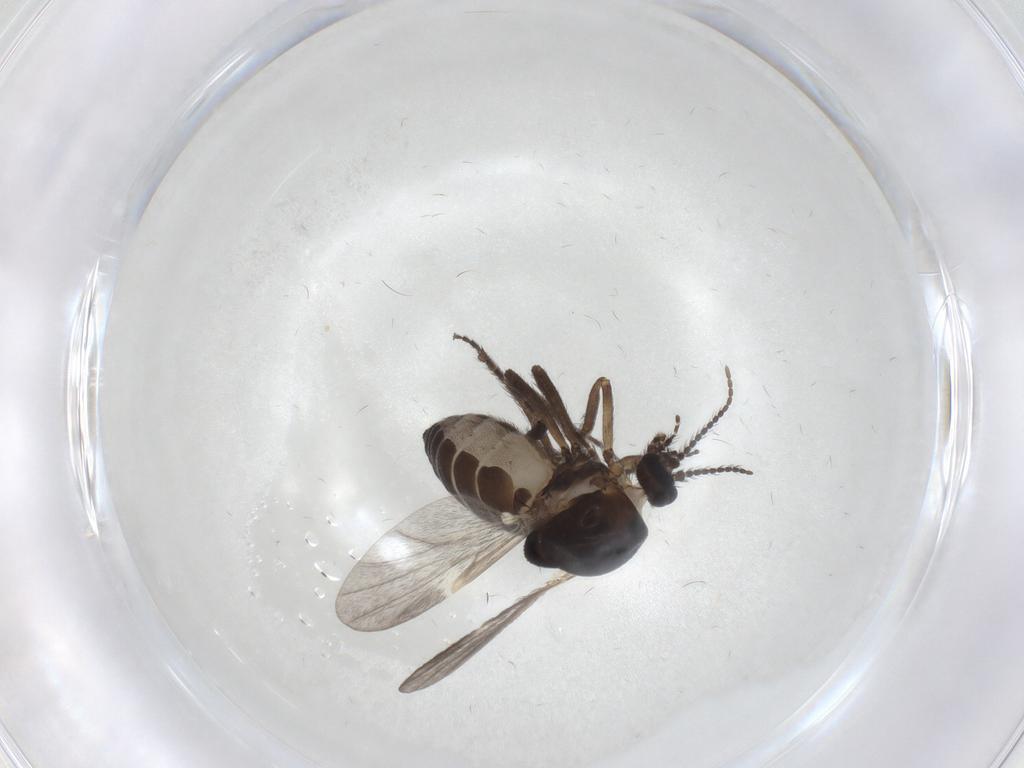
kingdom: Animalia
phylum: Arthropoda
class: Insecta
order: Diptera
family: Ceratopogonidae
